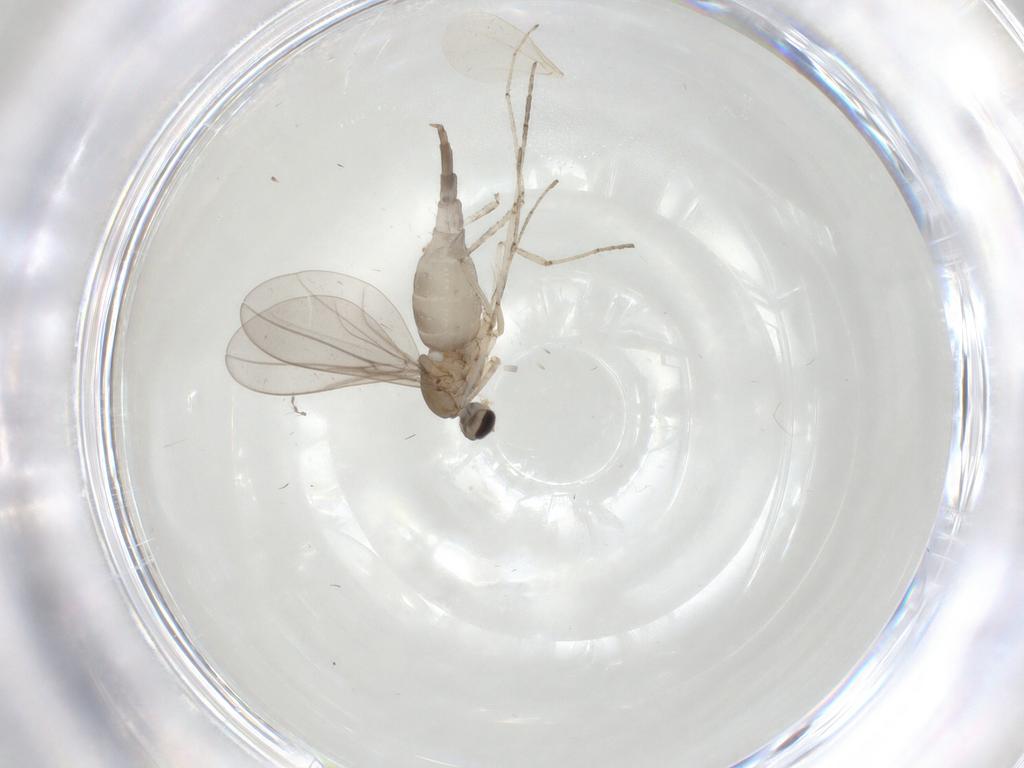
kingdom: Animalia
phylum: Arthropoda
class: Insecta
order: Diptera
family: Cecidomyiidae
